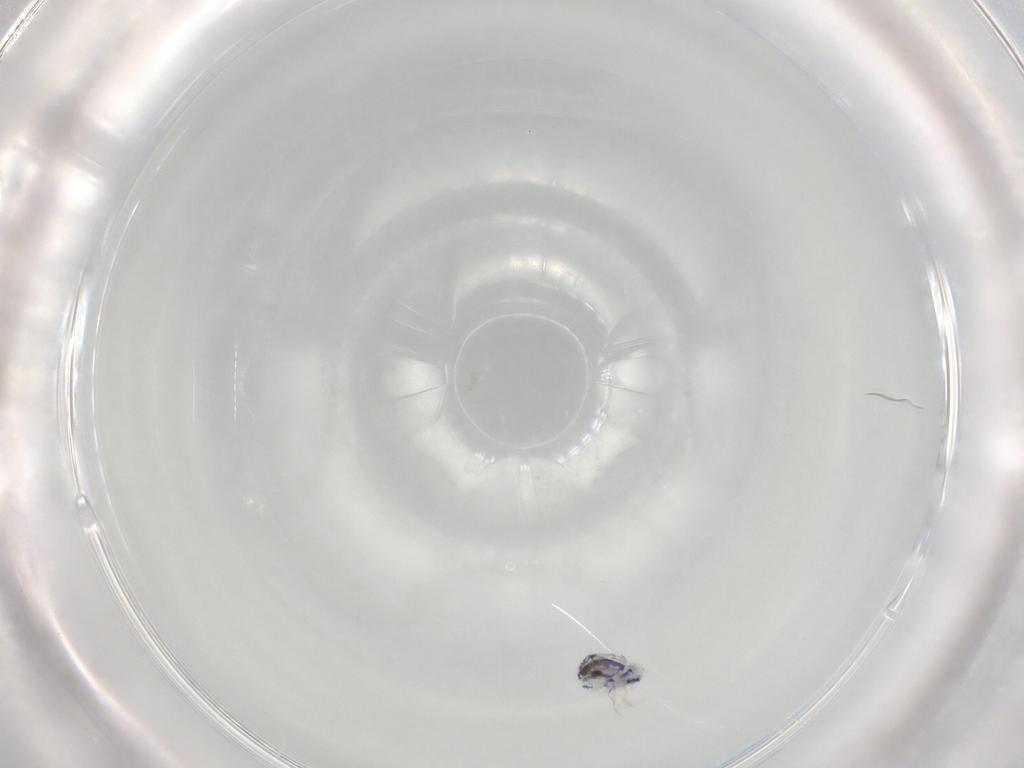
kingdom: Animalia
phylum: Arthropoda
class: Collembola
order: Entomobryomorpha
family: Entomobryidae
